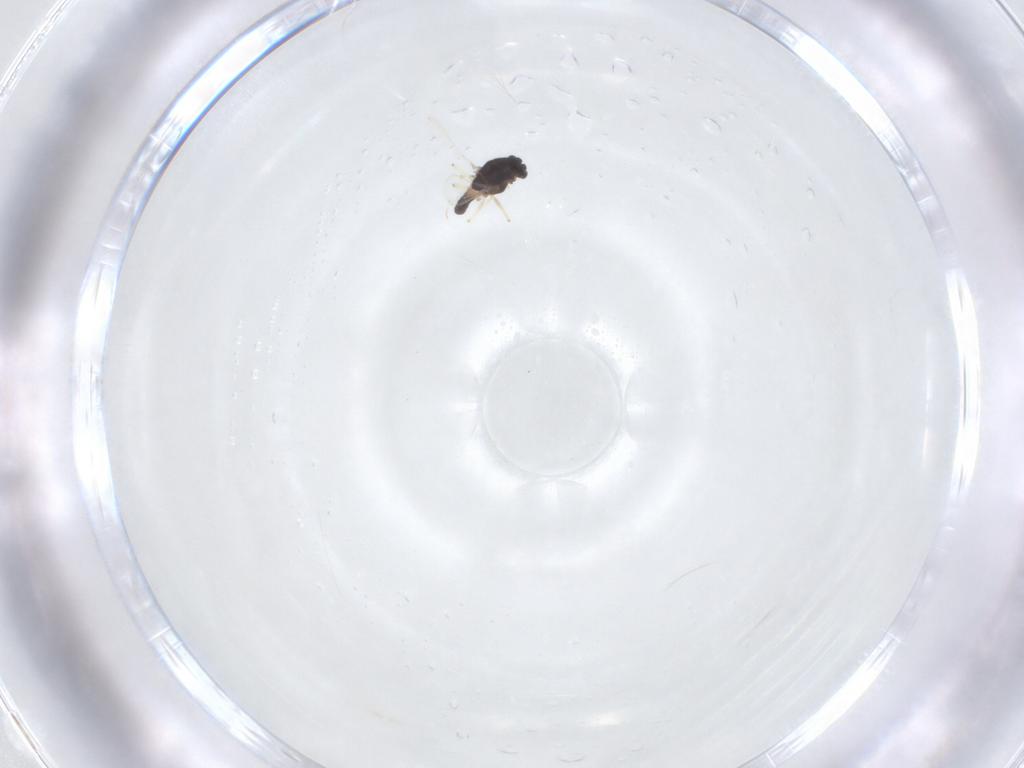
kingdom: Animalia
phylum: Arthropoda
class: Insecta
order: Diptera
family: Chironomidae
